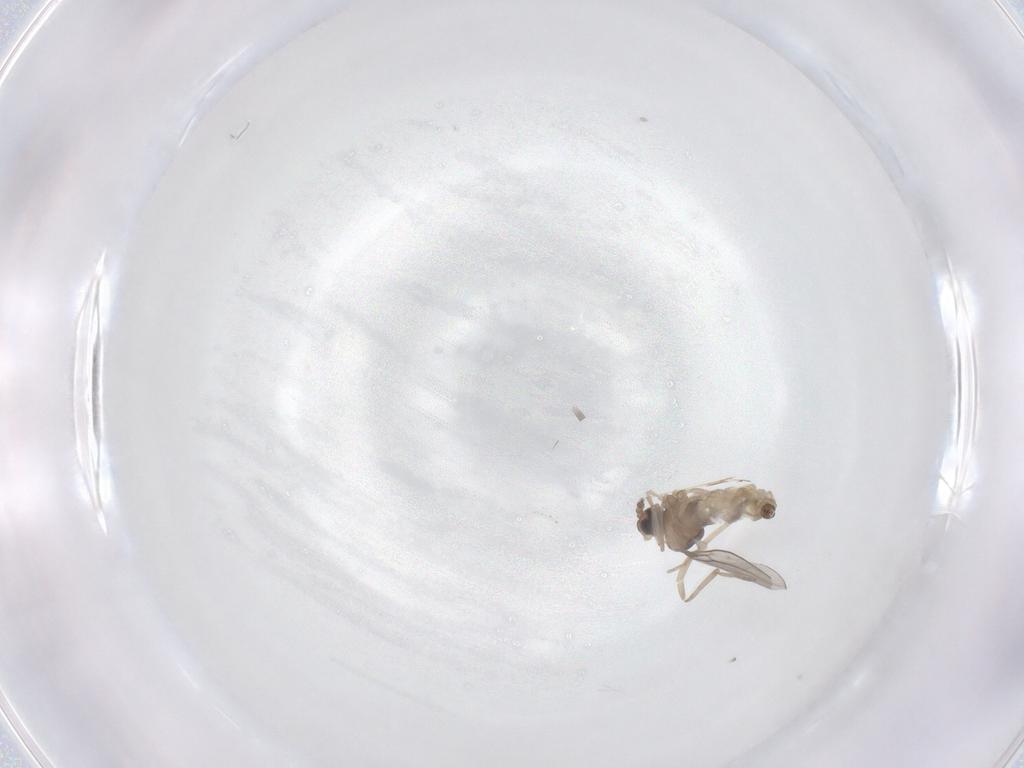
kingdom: Animalia
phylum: Arthropoda
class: Insecta
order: Diptera
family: Cecidomyiidae
